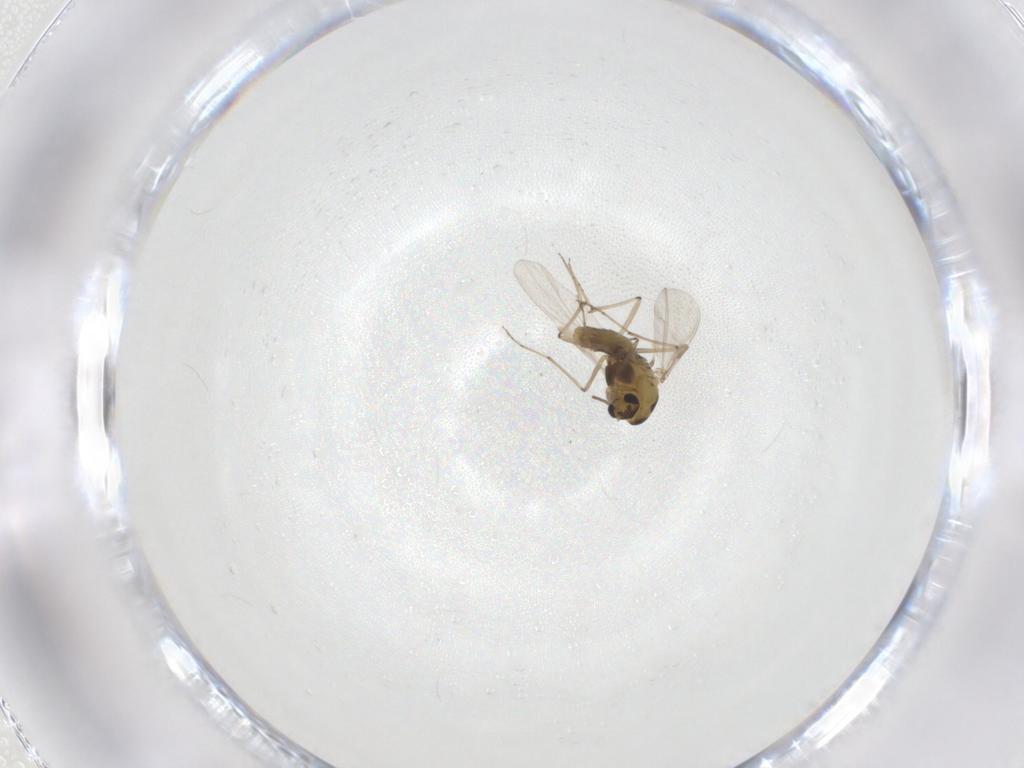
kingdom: Animalia
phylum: Arthropoda
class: Insecta
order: Diptera
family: Chironomidae
